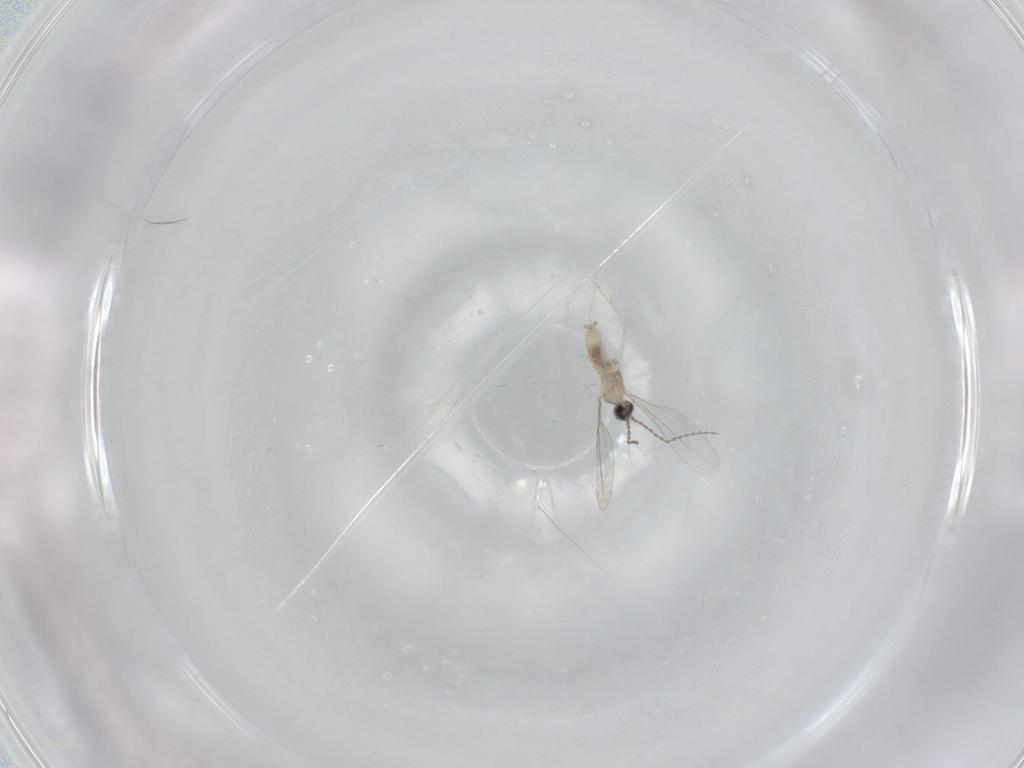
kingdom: Animalia
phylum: Arthropoda
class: Insecta
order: Diptera
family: Cecidomyiidae
